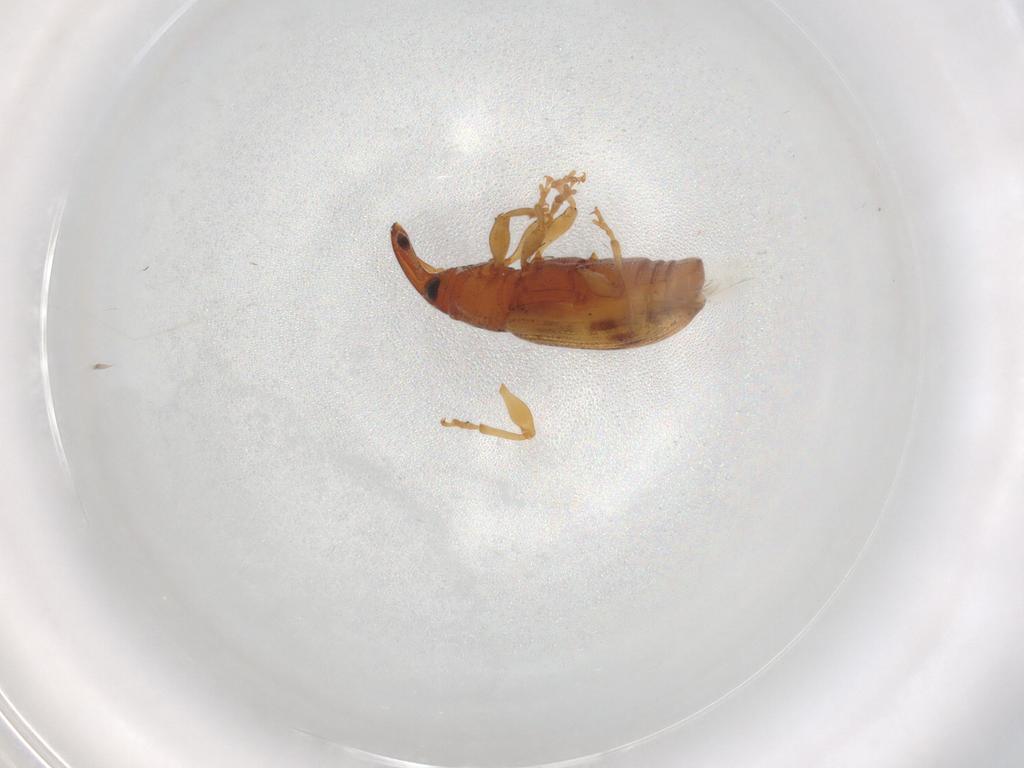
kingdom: Animalia
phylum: Arthropoda
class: Insecta
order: Coleoptera
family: Curculionidae
